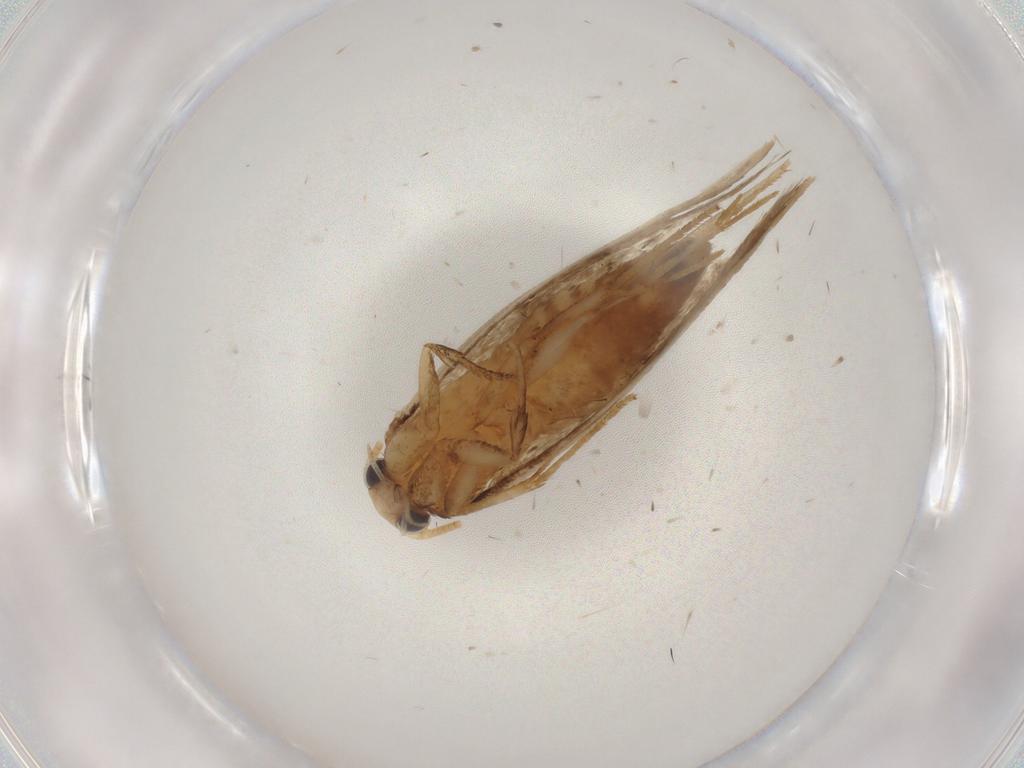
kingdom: Animalia
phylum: Arthropoda
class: Insecta
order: Lepidoptera
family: Tineidae
